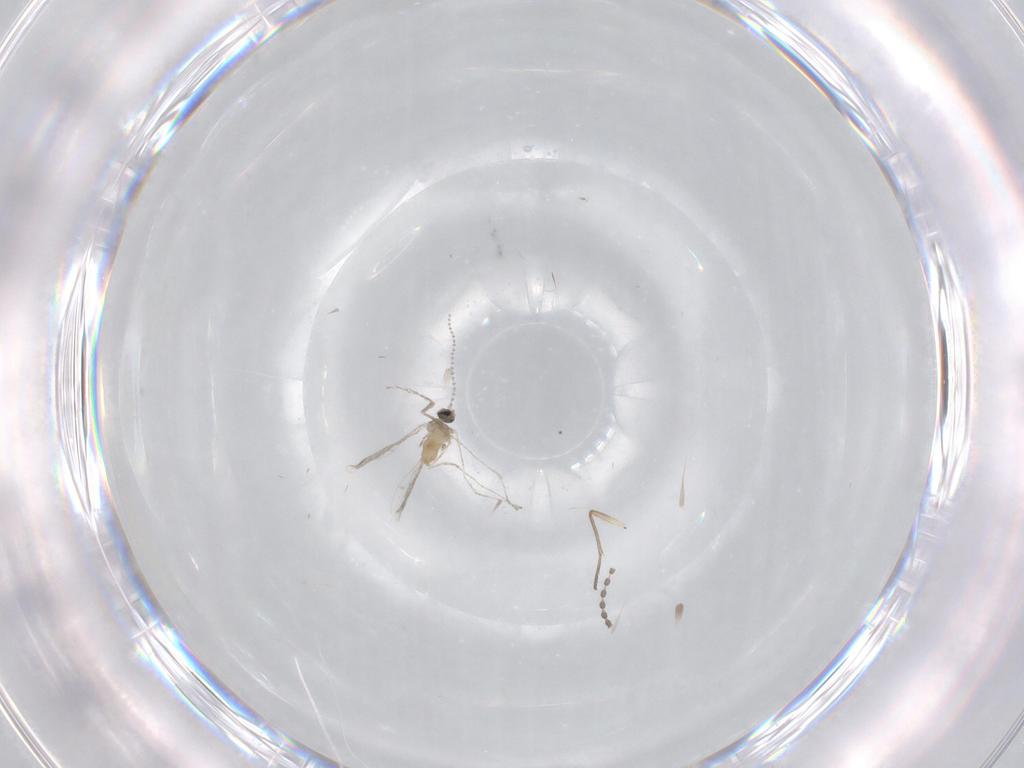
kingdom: Animalia
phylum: Arthropoda
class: Insecta
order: Diptera
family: Cecidomyiidae
